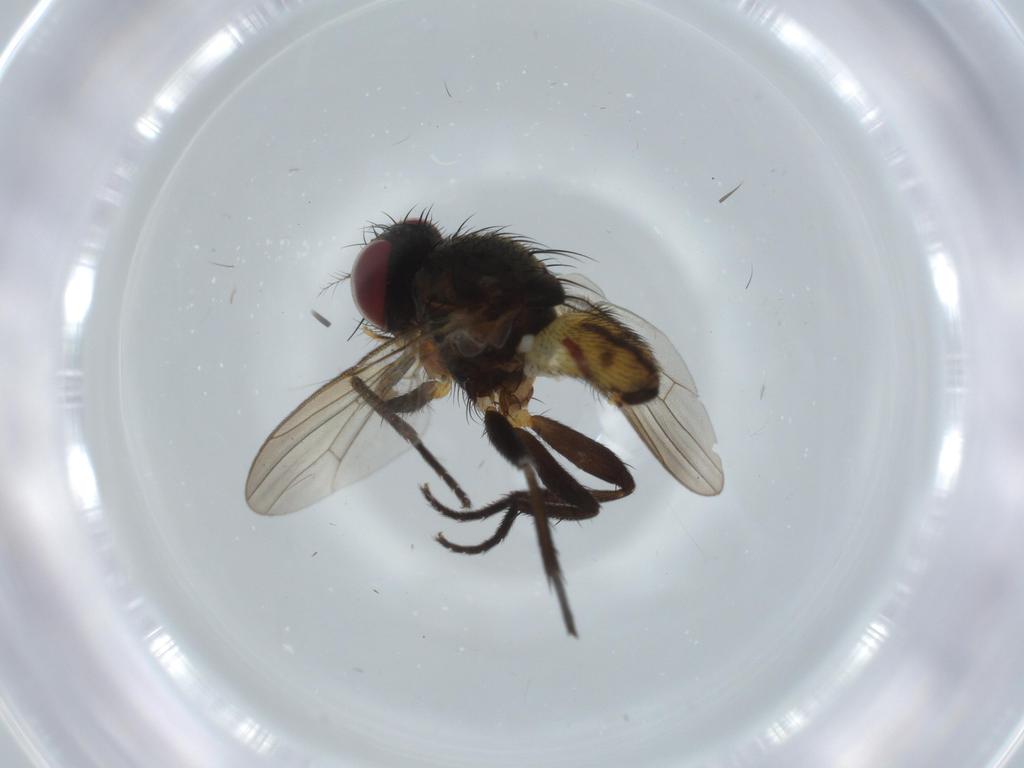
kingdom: Animalia
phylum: Arthropoda
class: Insecta
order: Diptera
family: Anthomyiidae
